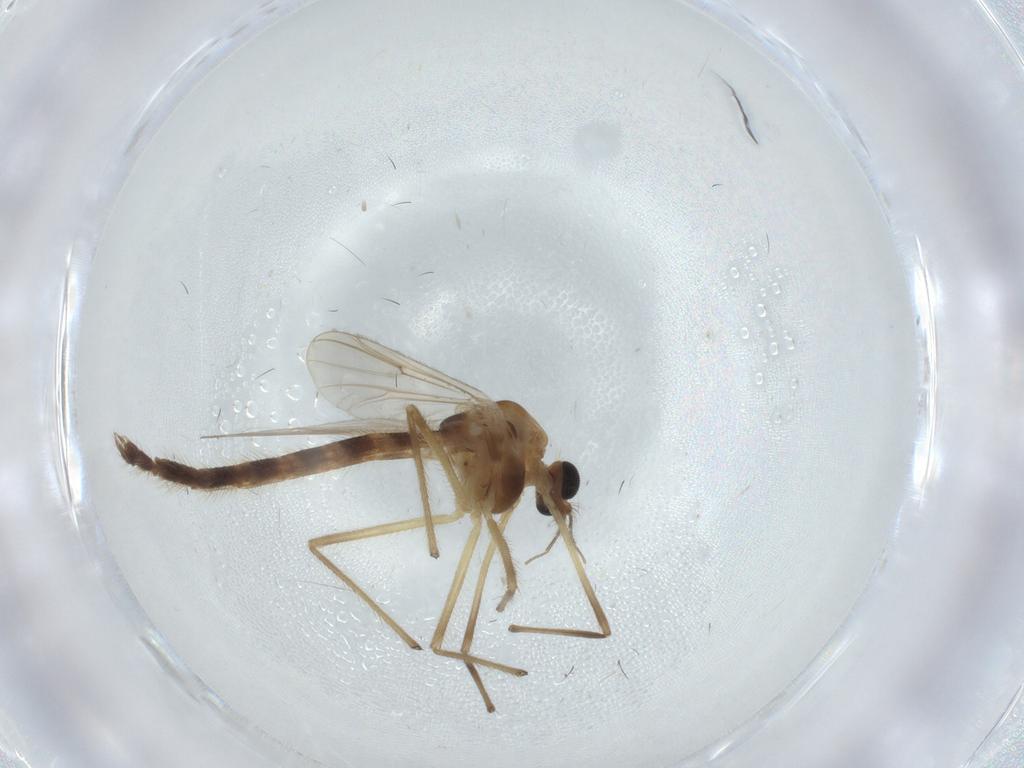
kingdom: Animalia
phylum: Arthropoda
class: Insecta
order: Diptera
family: Chironomidae
